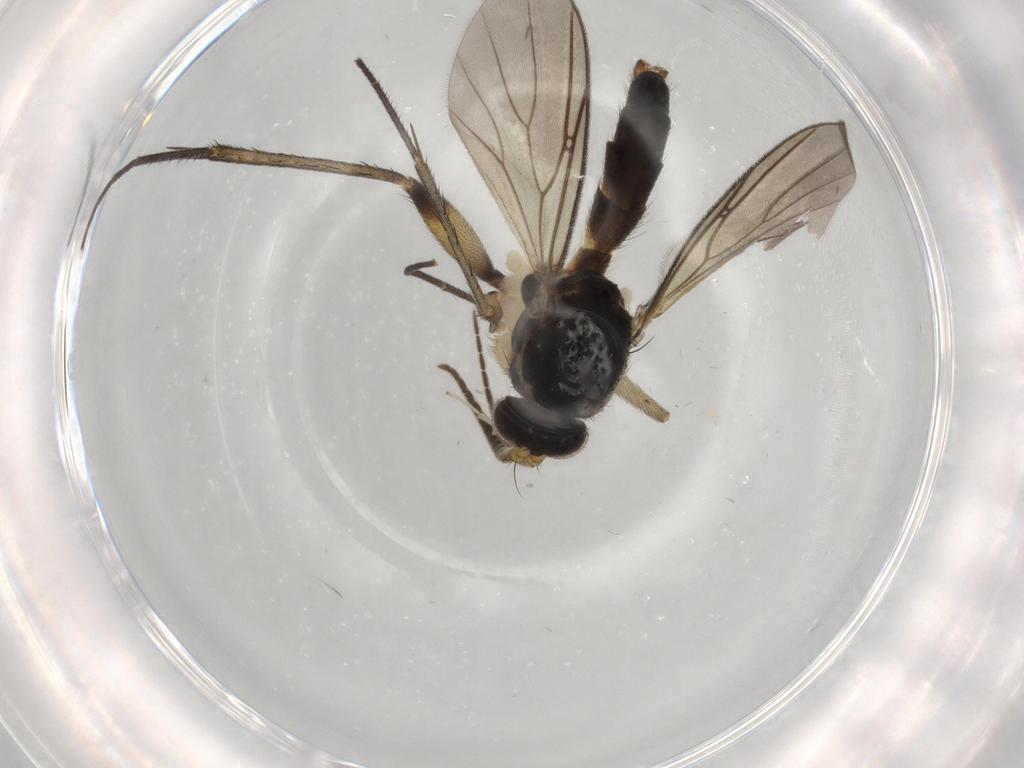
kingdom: Animalia
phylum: Arthropoda
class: Insecta
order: Diptera
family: Mycetophilidae
